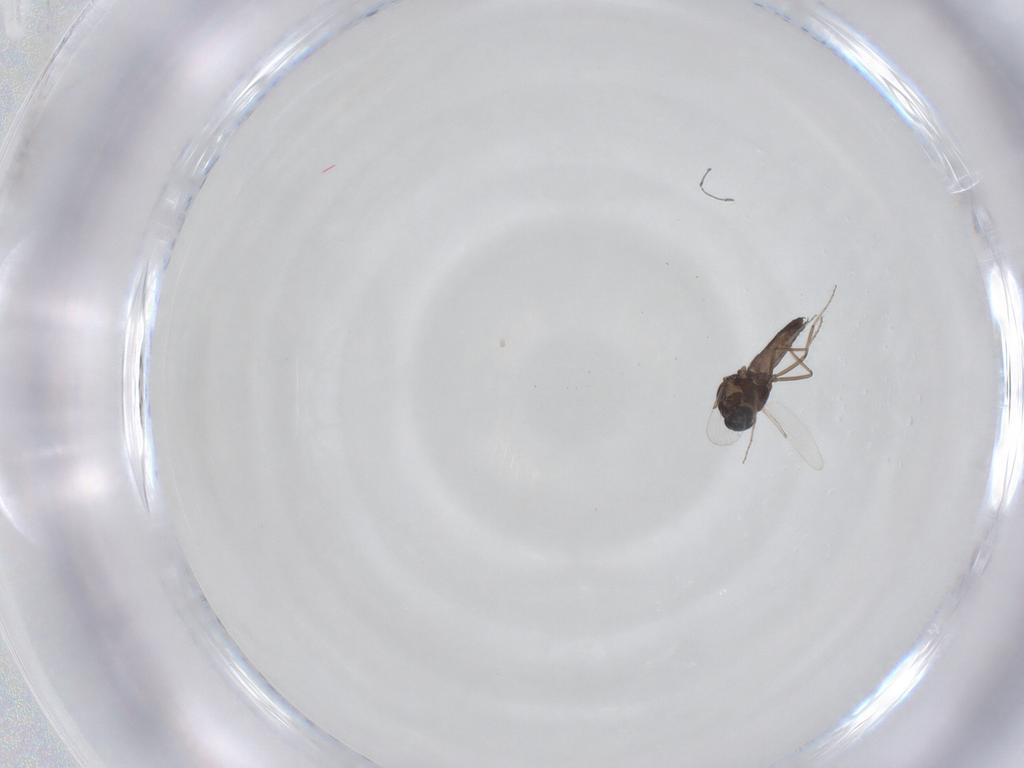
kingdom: Animalia
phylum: Arthropoda
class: Insecta
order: Diptera
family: Ceratopogonidae
